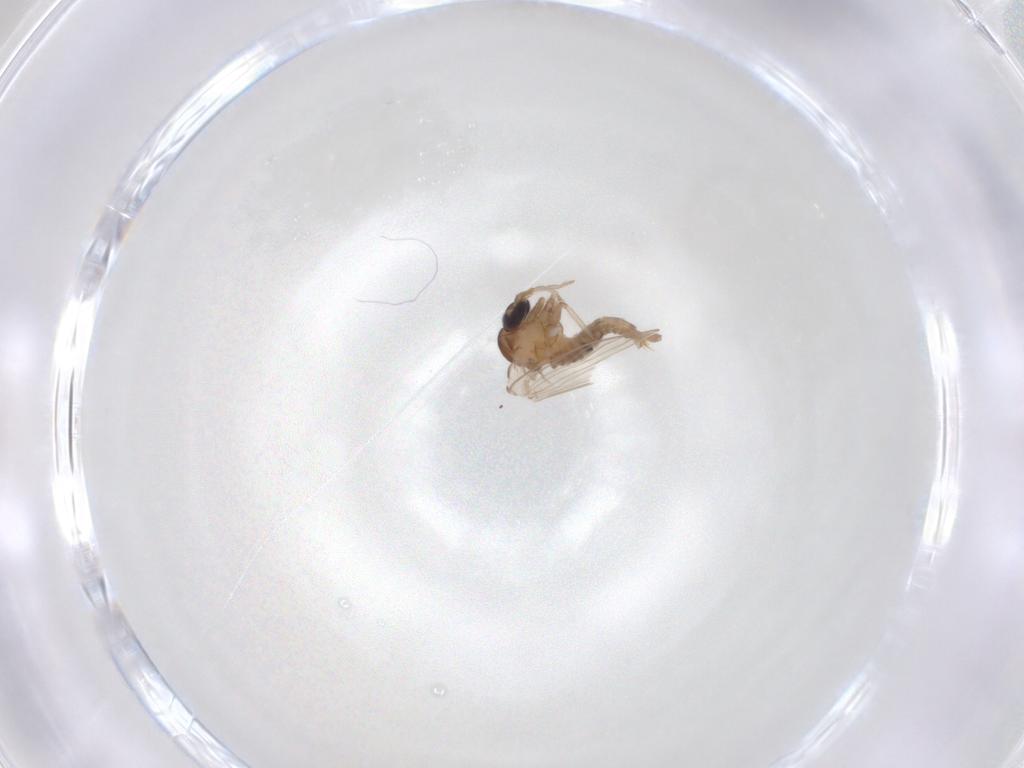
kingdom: Animalia
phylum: Arthropoda
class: Insecta
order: Diptera
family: Psychodidae
